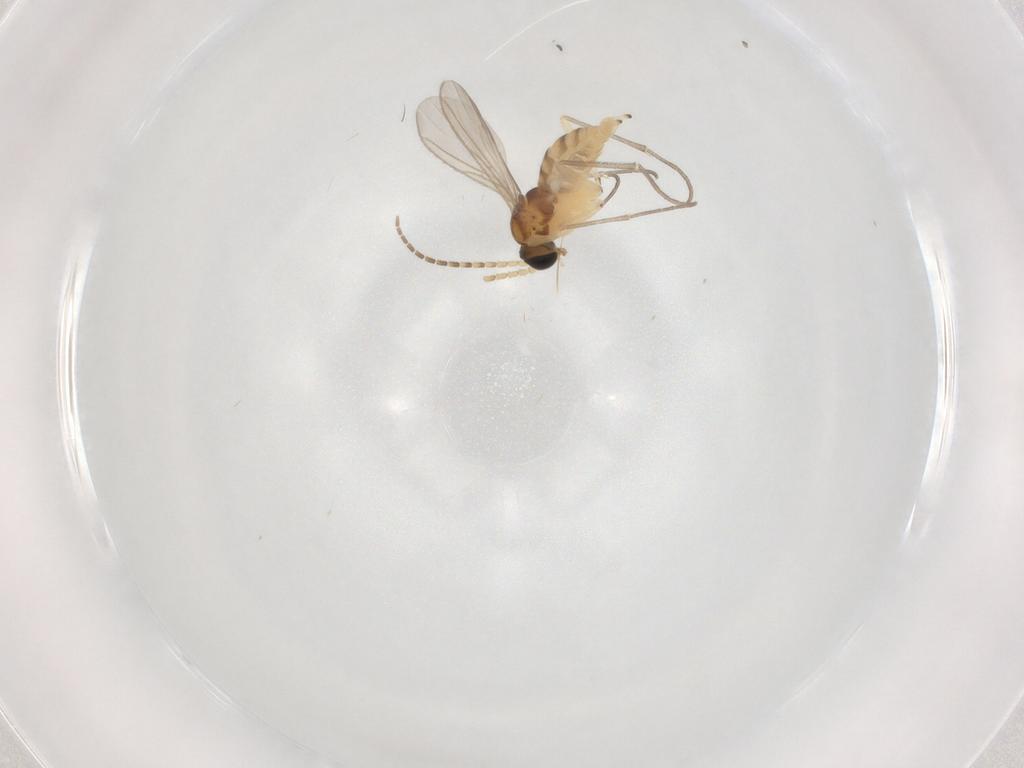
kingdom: Animalia
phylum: Arthropoda
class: Insecta
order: Diptera
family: Sciaridae
